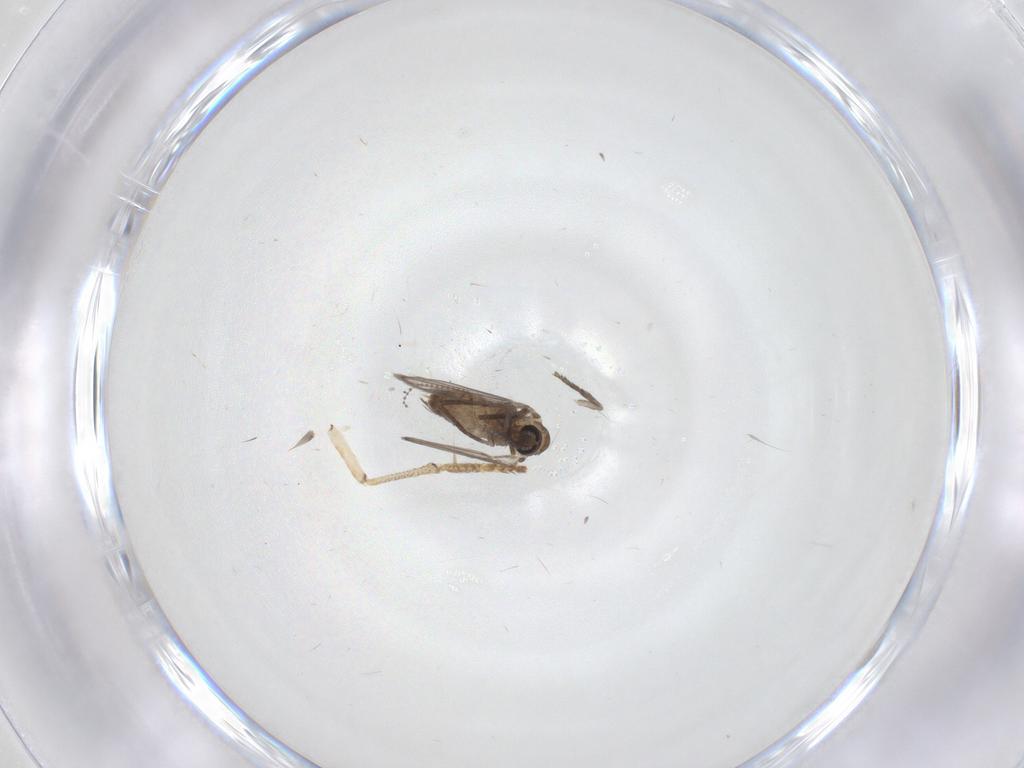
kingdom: Animalia
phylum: Arthropoda
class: Insecta
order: Diptera
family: Psychodidae
